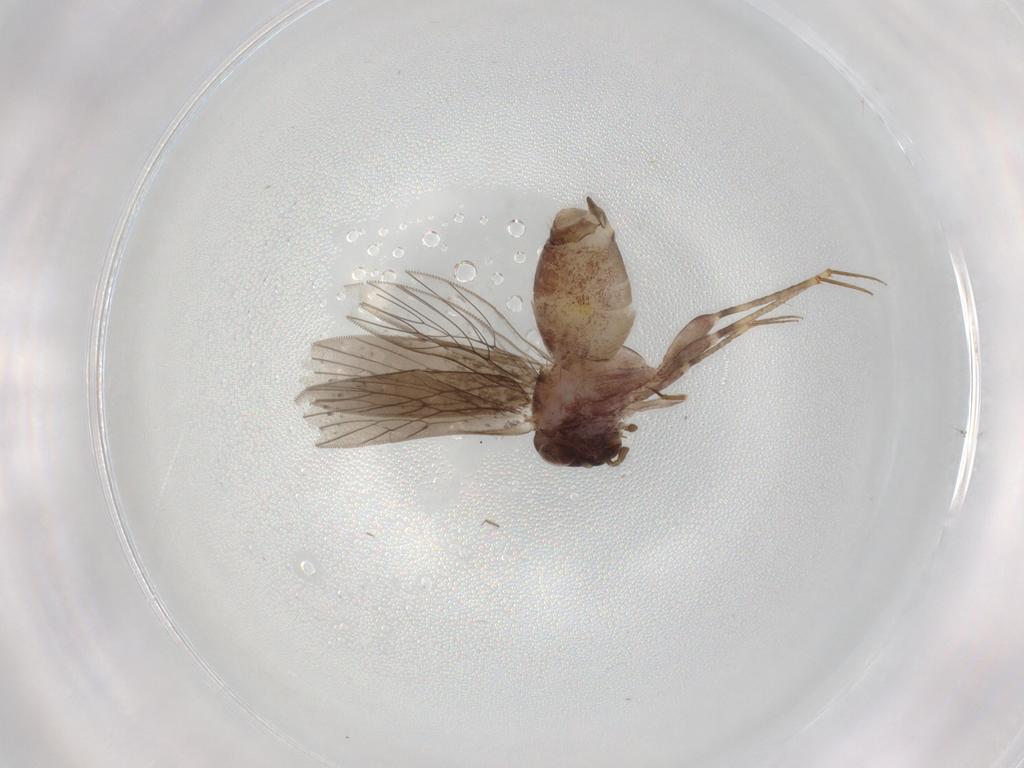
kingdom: Animalia
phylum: Arthropoda
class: Insecta
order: Psocodea
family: Lepidopsocidae
